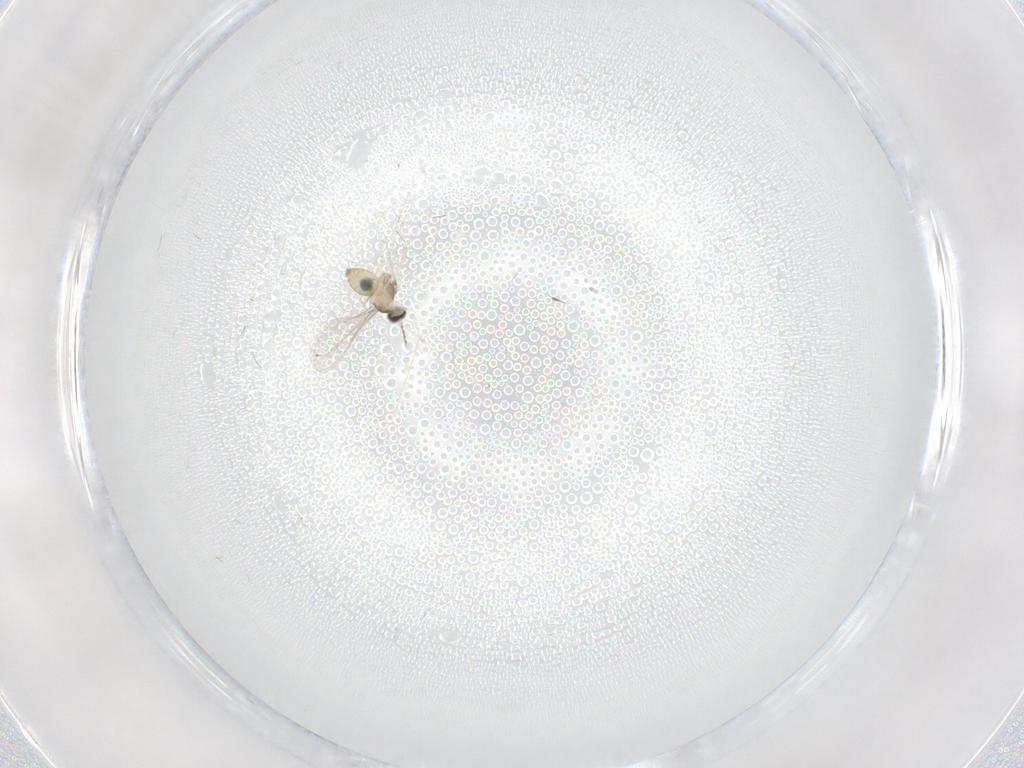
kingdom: Animalia
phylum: Arthropoda
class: Insecta
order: Diptera
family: Cecidomyiidae
